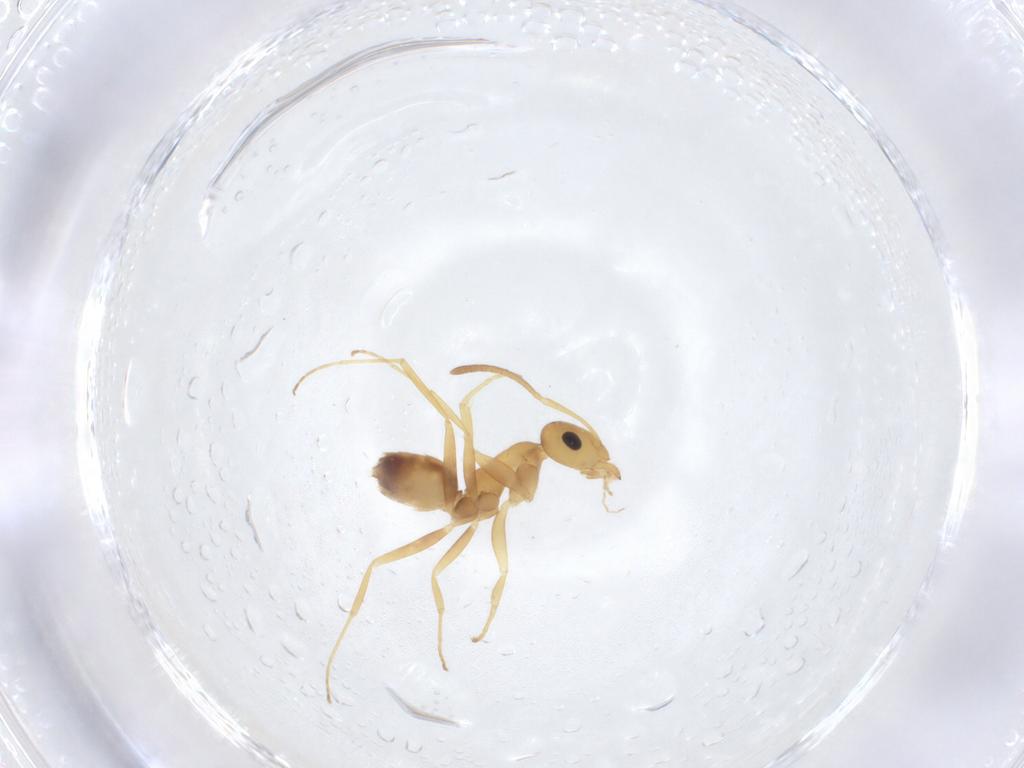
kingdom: Animalia
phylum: Arthropoda
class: Insecta
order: Hymenoptera
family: Formicidae
